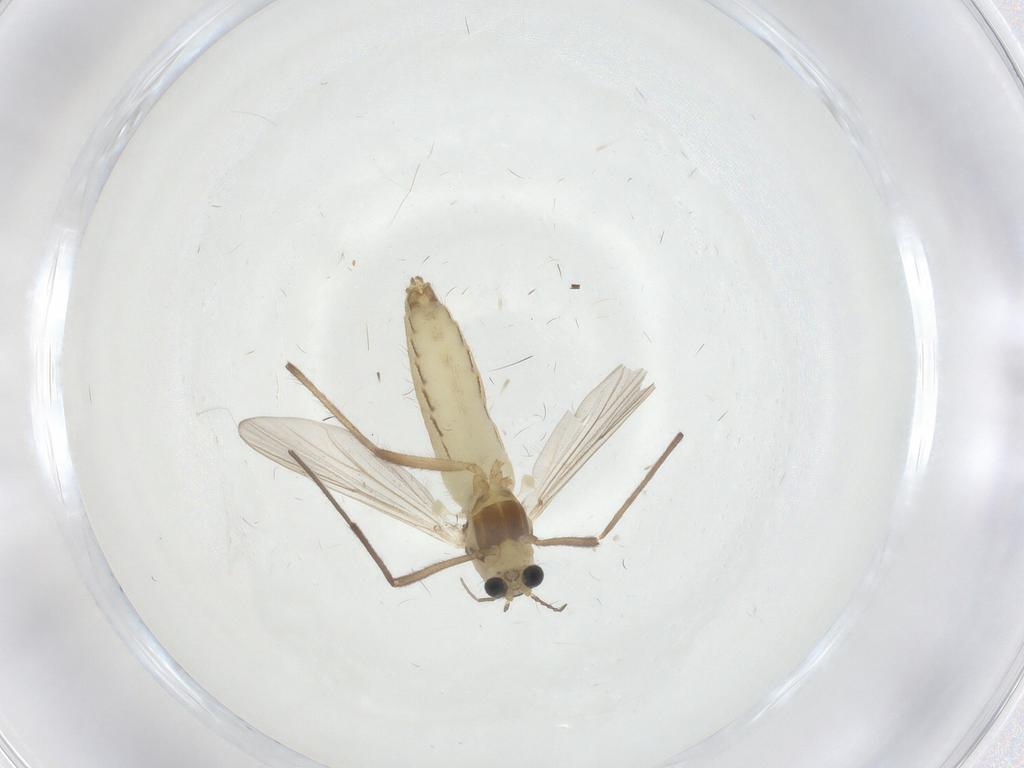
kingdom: Animalia
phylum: Arthropoda
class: Insecta
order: Diptera
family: Chironomidae
